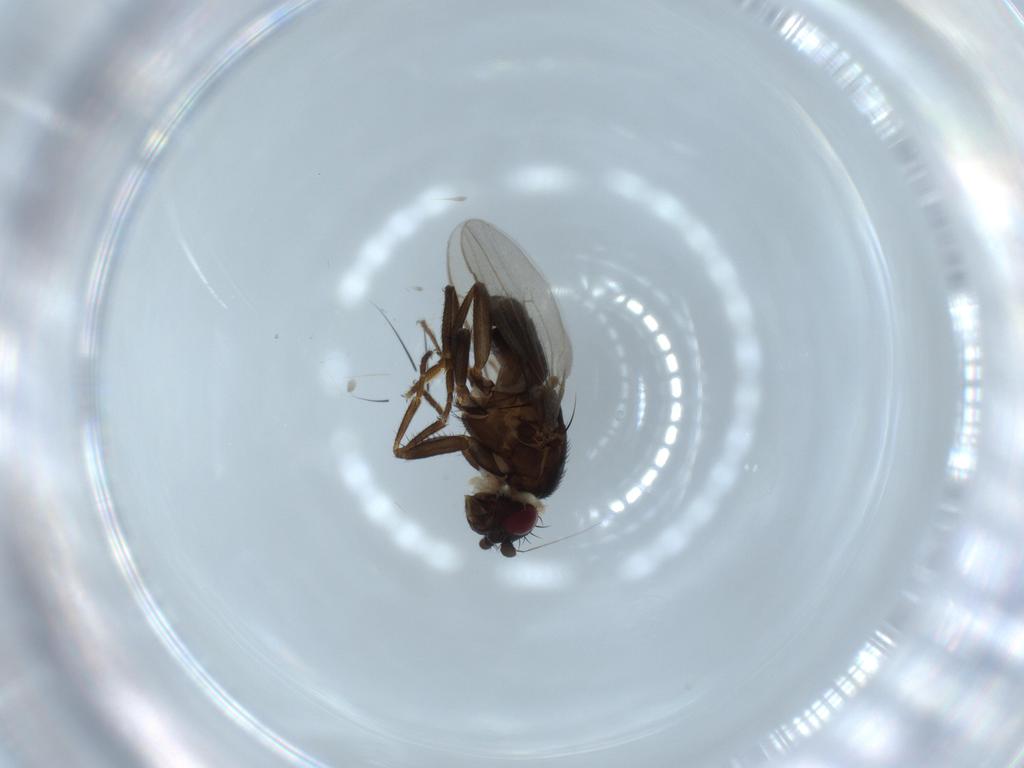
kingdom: Animalia
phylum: Arthropoda
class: Insecta
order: Diptera
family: Sphaeroceridae
